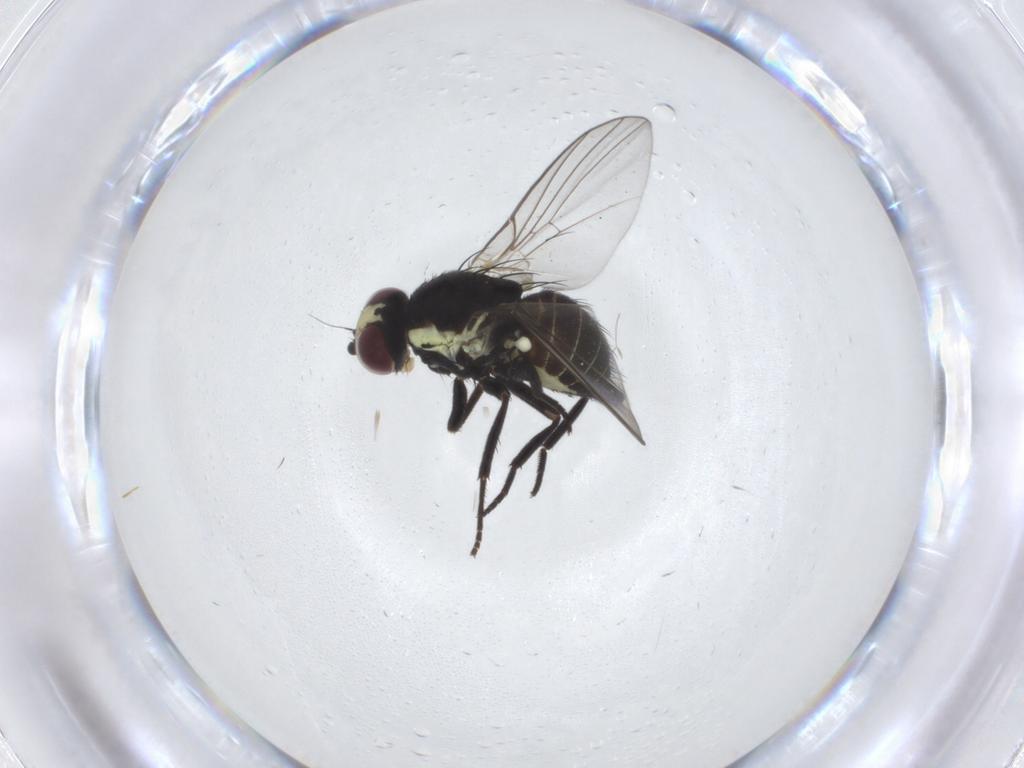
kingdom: Animalia
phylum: Arthropoda
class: Insecta
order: Diptera
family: Agromyzidae
